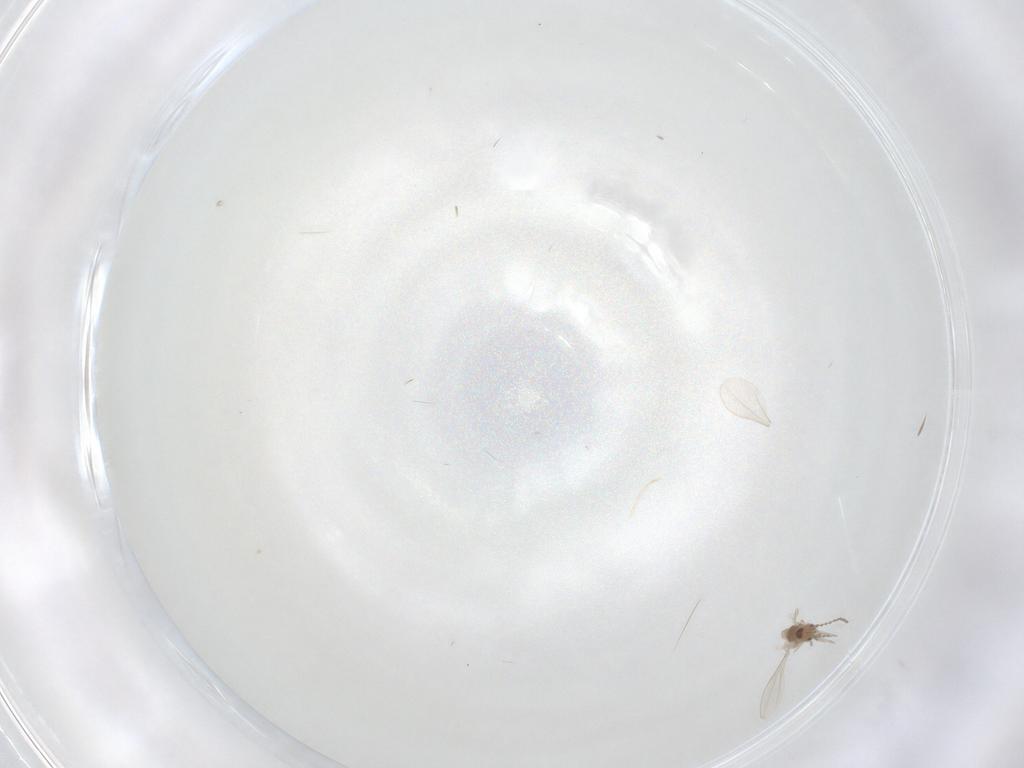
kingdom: Animalia
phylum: Arthropoda
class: Insecta
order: Diptera
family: Cecidomyiidae
